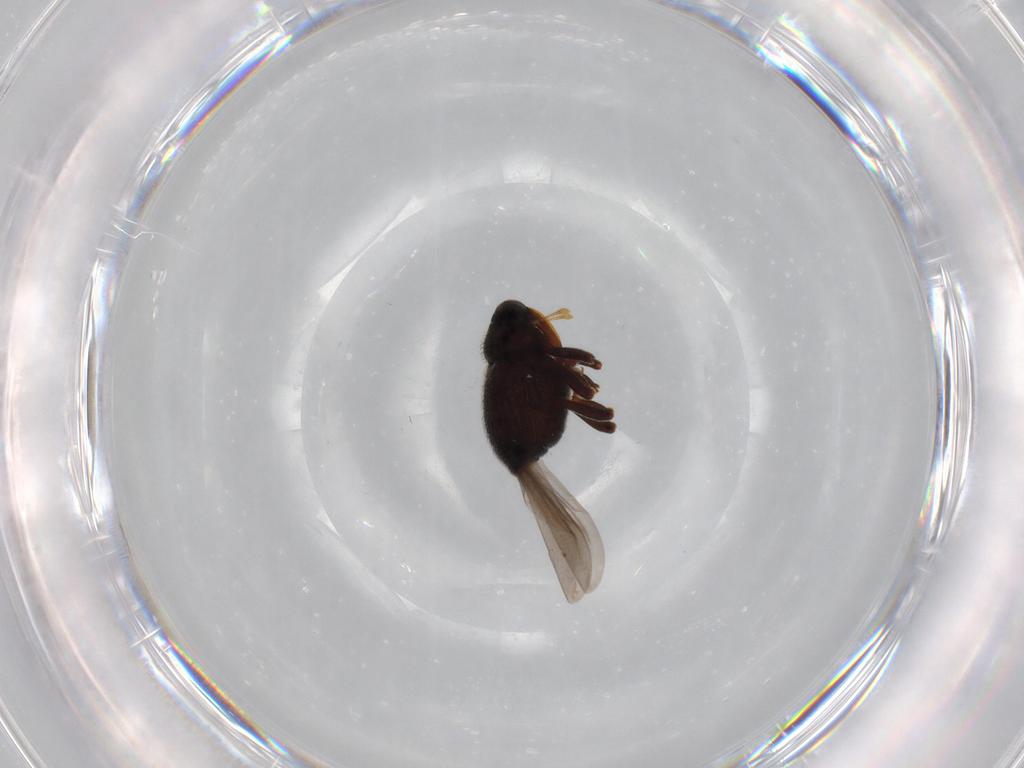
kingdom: Animalia
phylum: Arthropoda
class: Insecta
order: Coleoptera
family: Curculionidae
